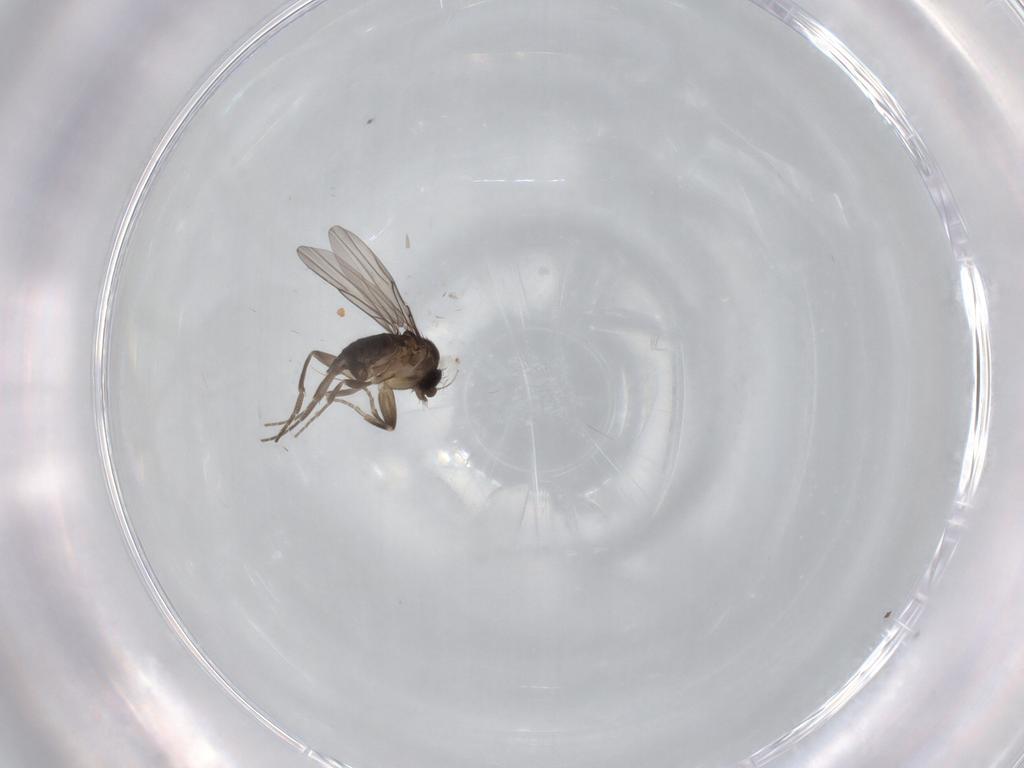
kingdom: Animalia
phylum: Arthropoda
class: Insecta
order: Diptera
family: Phoridae
